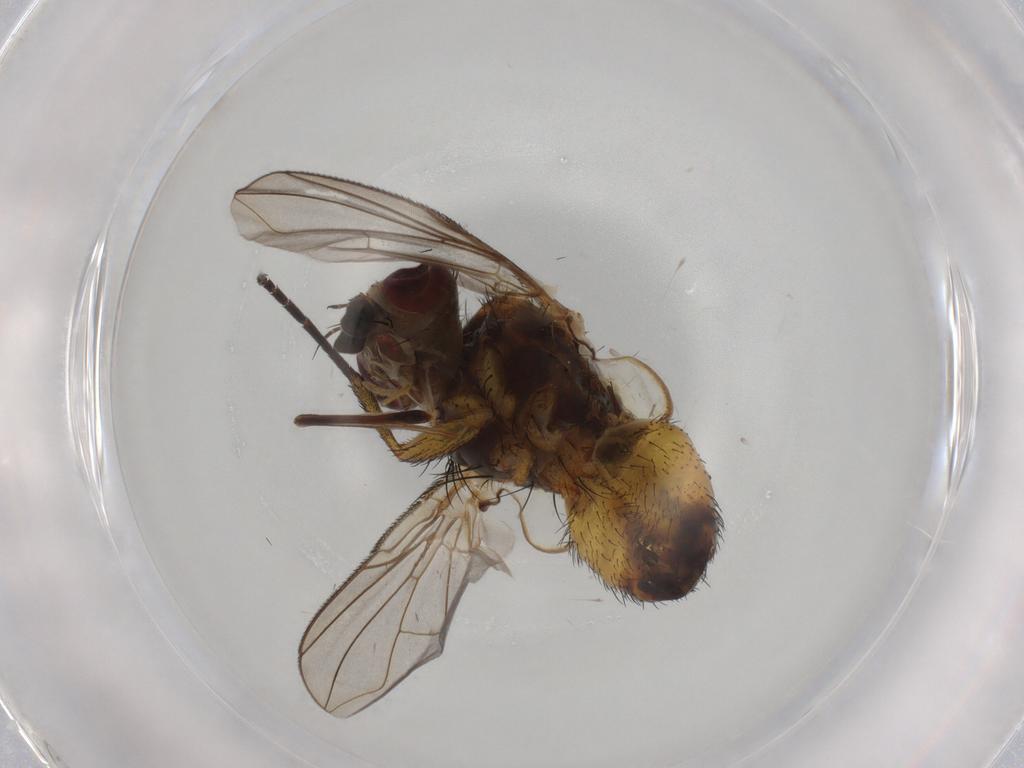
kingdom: Animalia
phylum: Arthropoda
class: Insecta
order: Diptera
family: Tachinidae
